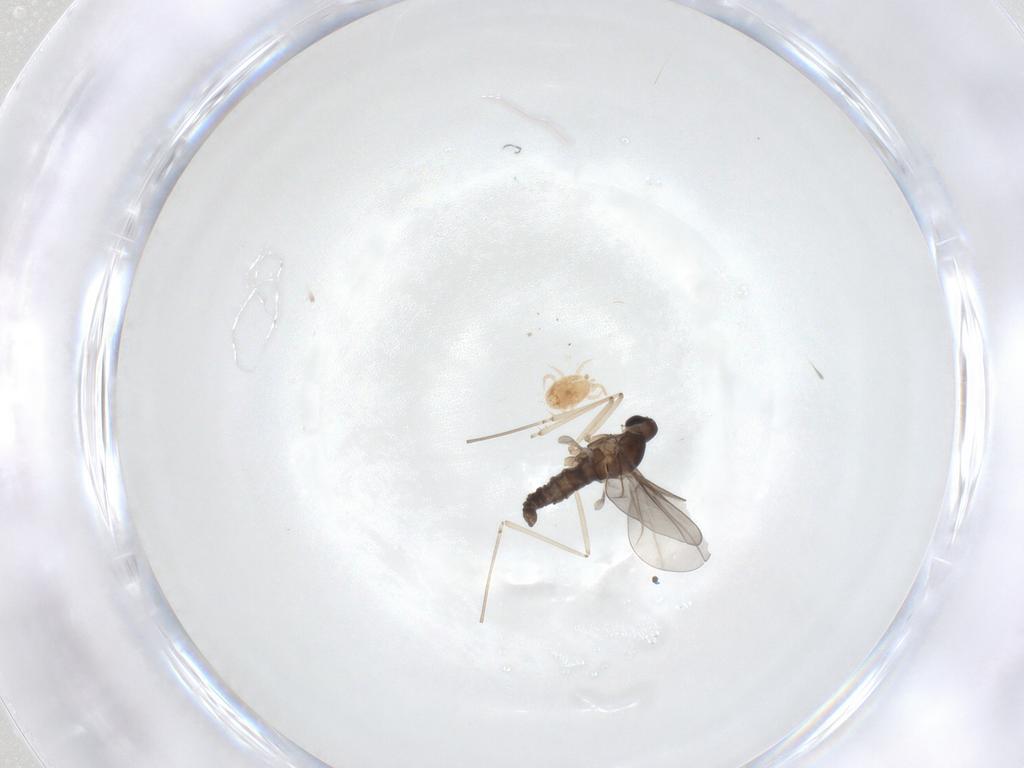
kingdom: Animalia
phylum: Arthropoda
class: Insecta
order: Diptera
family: Cecidomyiidae
